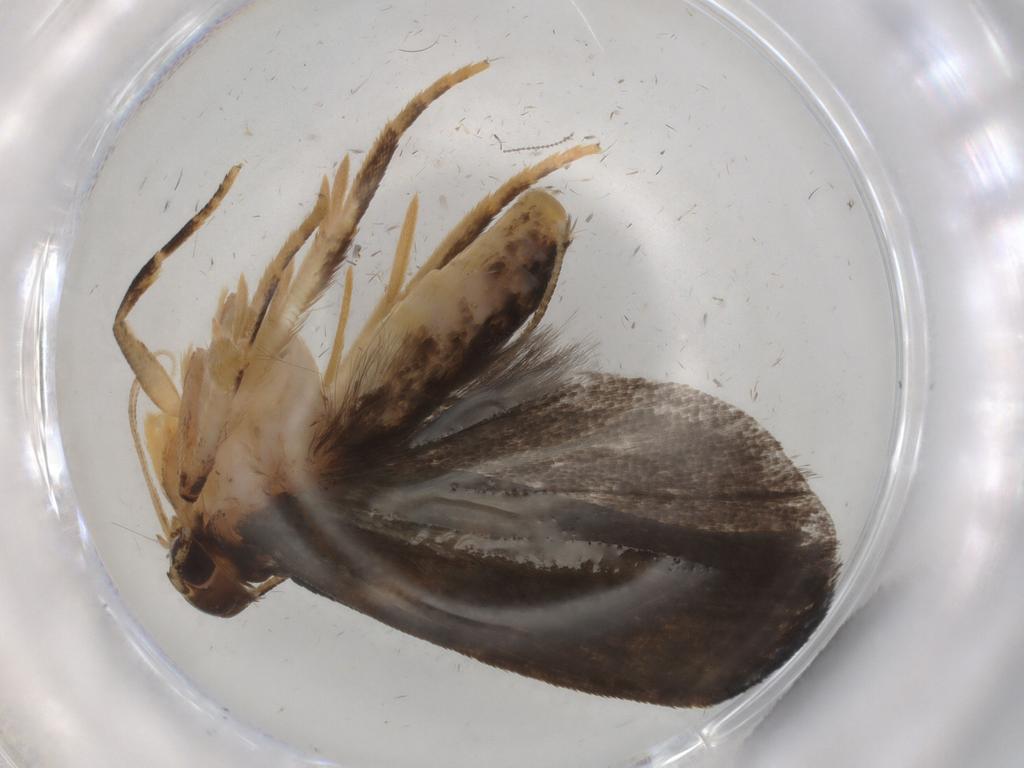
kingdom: Animalia
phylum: Arthropoda
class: Insecta
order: Lepidoptera
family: Gelechiidae
